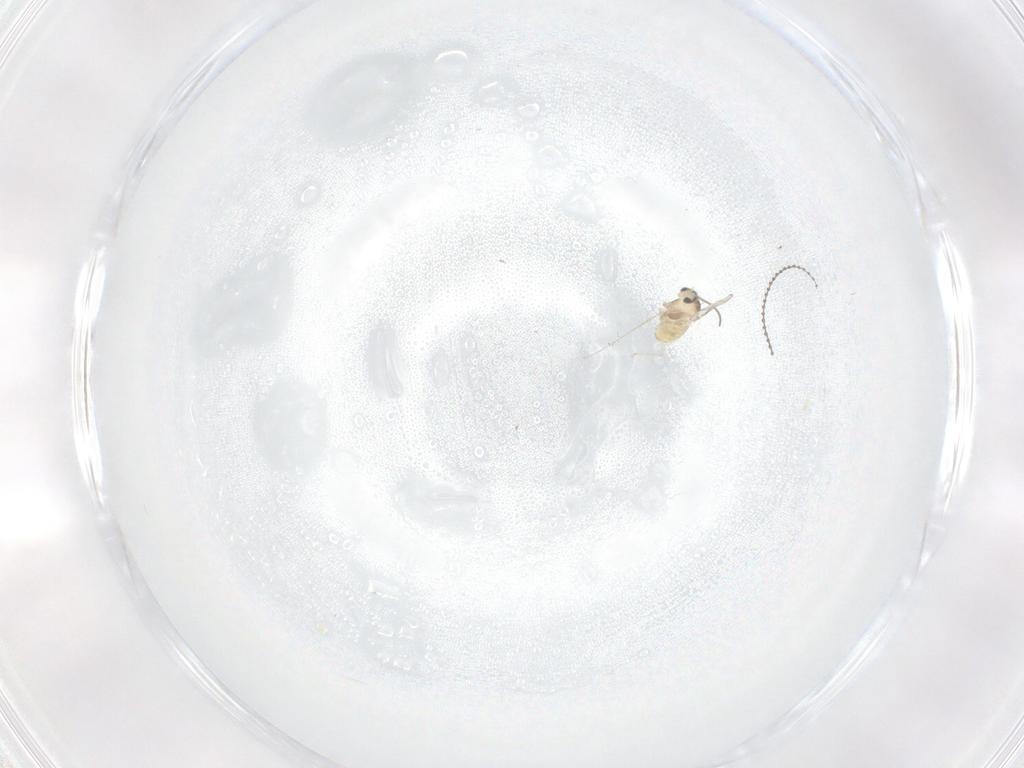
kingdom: Animalia
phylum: Arthropoda
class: Insecta
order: Diptera
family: Cecidomyiidae
